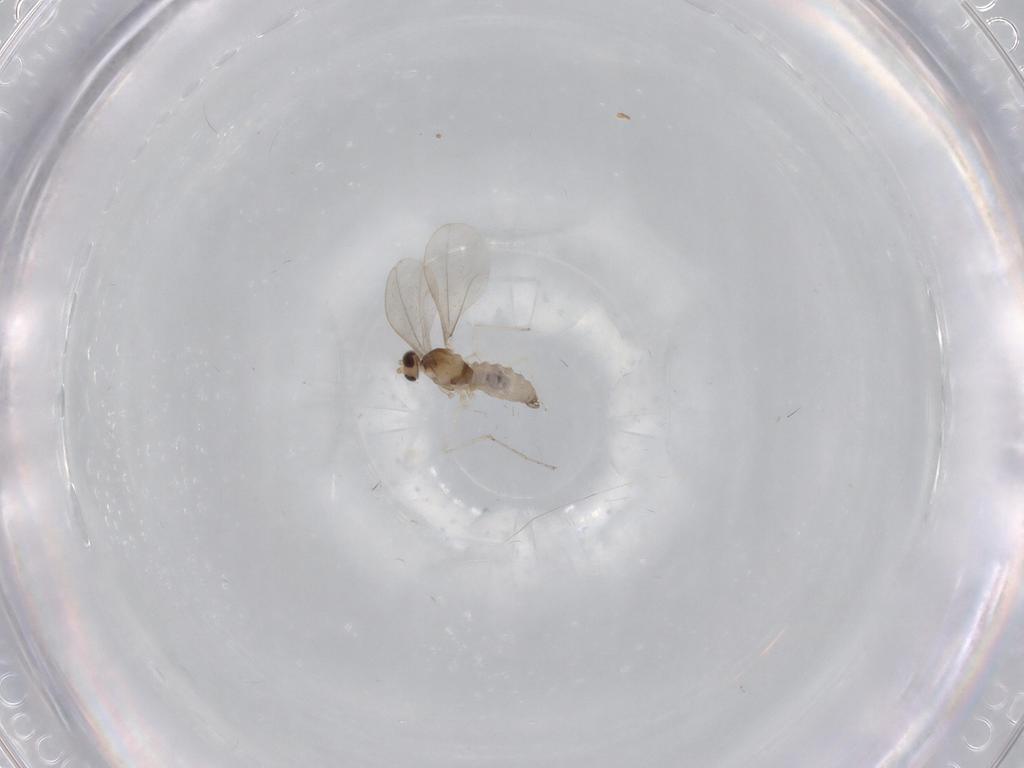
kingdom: Animalia
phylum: Arthropoda
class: Insecta
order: Diptera
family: Cecidomyiidae
